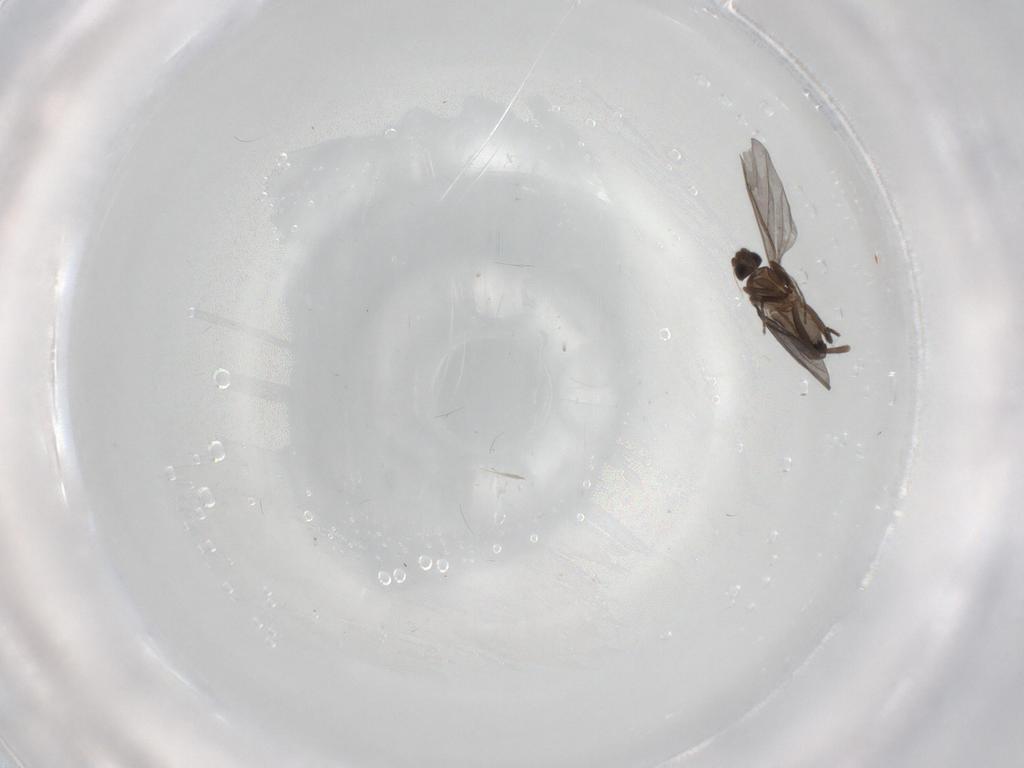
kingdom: Animalia
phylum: Arthropoda
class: Insecta
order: Diptera
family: Phoridae
